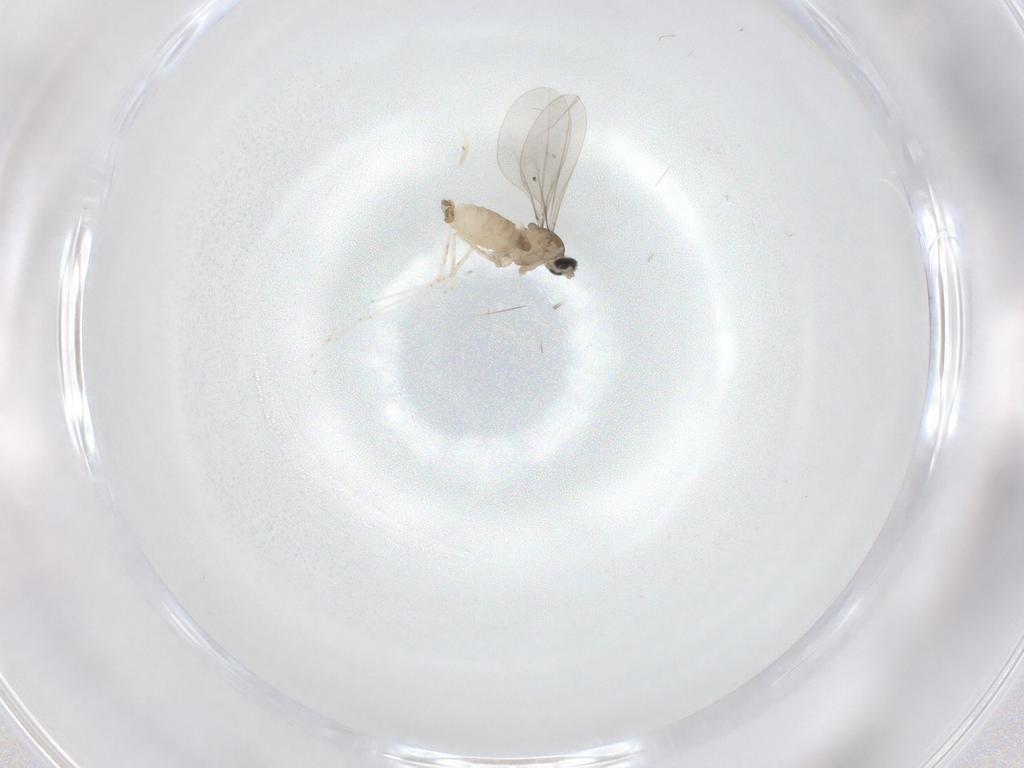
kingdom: Animalia
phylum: Arthropoda
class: Insecta
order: Diptera
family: Cecidomyiidae
